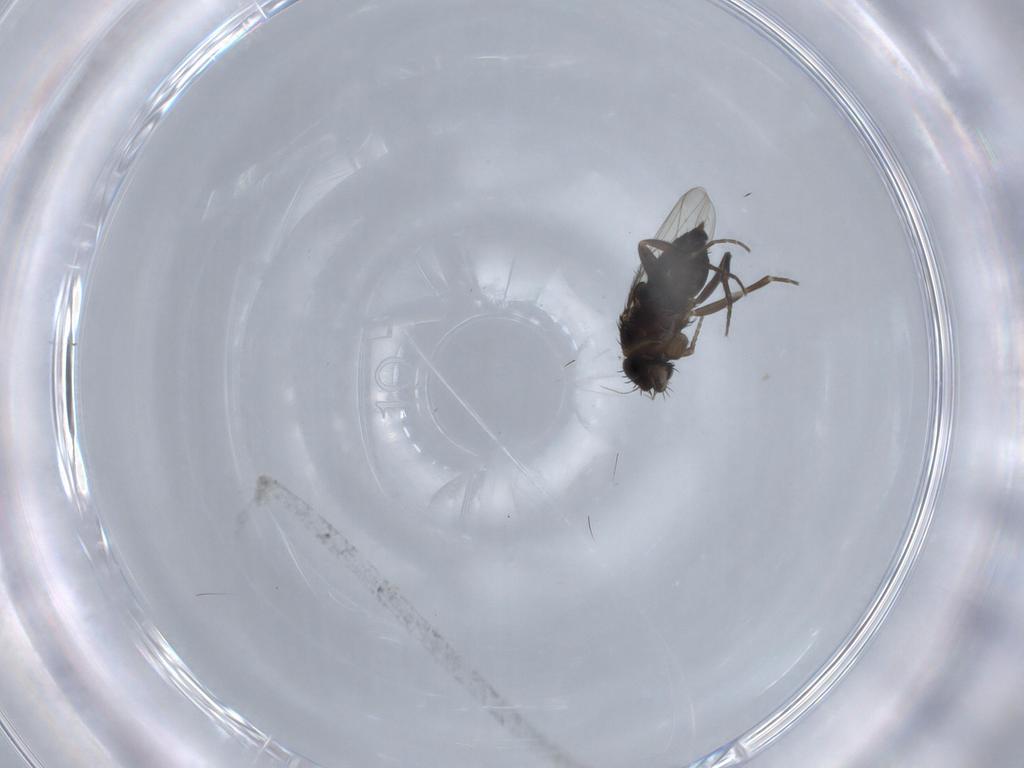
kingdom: Animalia
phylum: Arthropoda
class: Insecta
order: Diptera
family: Phoridae
